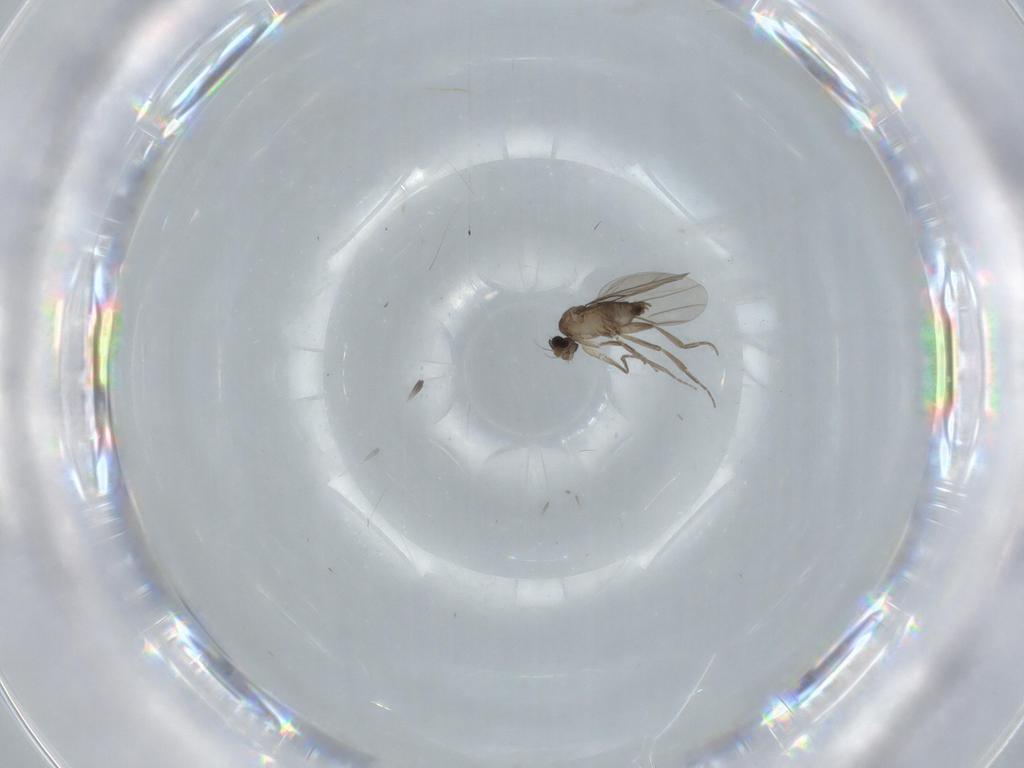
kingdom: Animalia
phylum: Arthropoda
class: Insecta
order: Diptera
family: Phoridae
